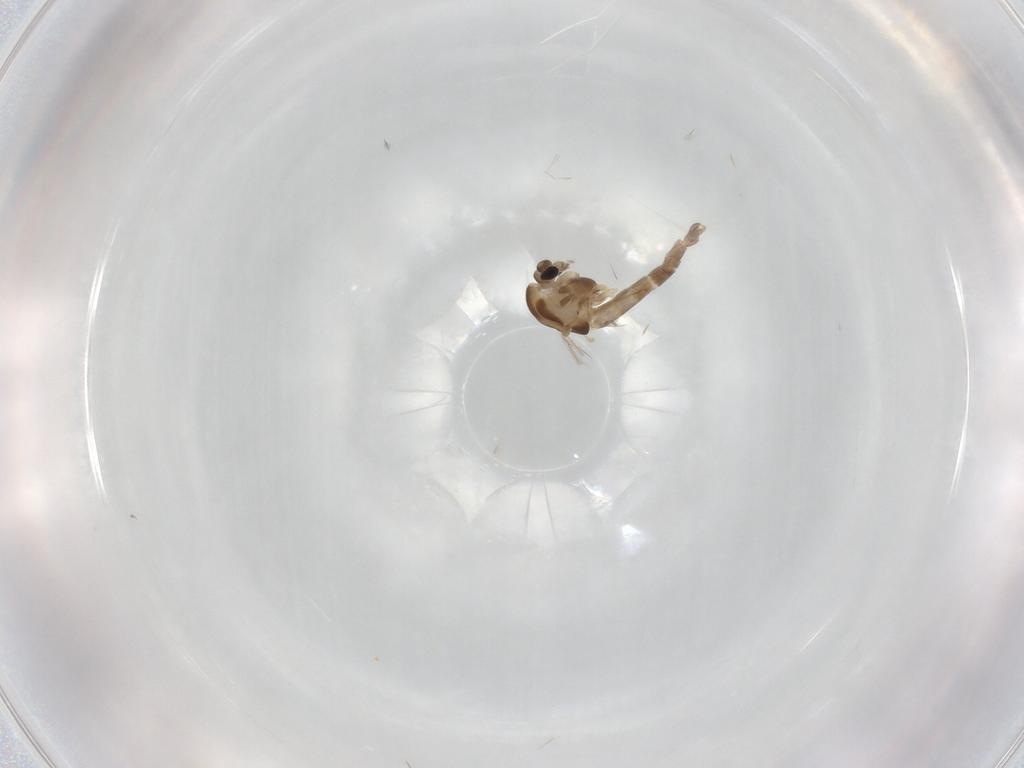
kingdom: Animalia
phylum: Arthropoda
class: Insecta
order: Diptera
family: Chironomidae
